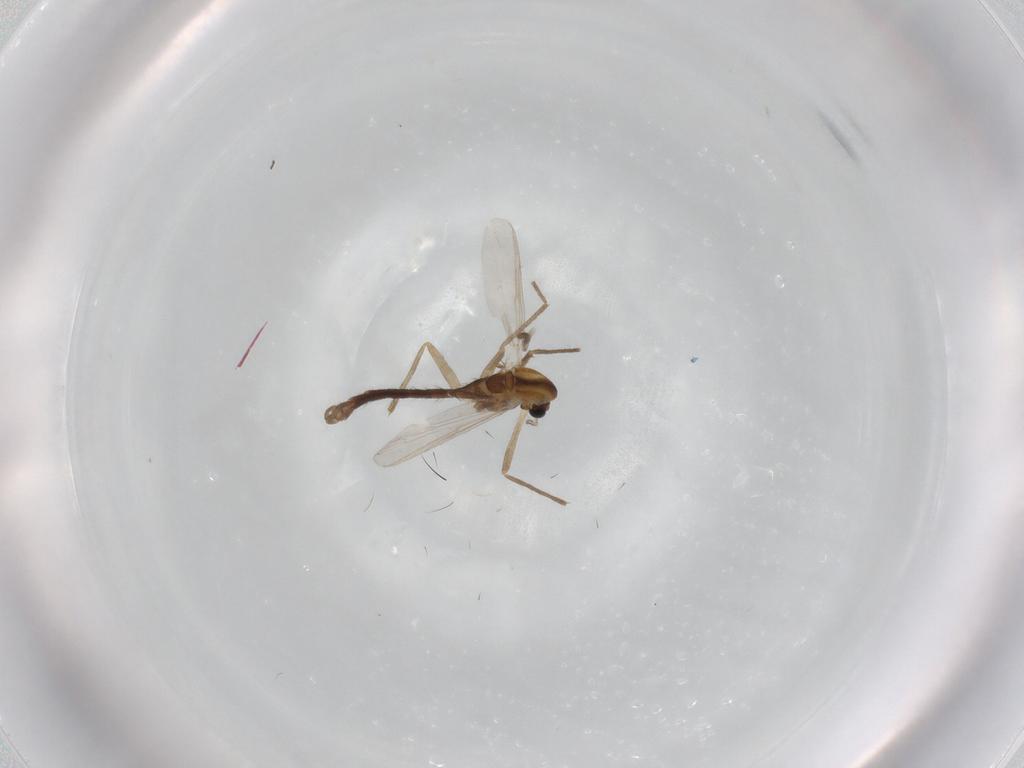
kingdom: Animalia
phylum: Arthropoda
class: Insecta
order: Diptera
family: Chironomidae
